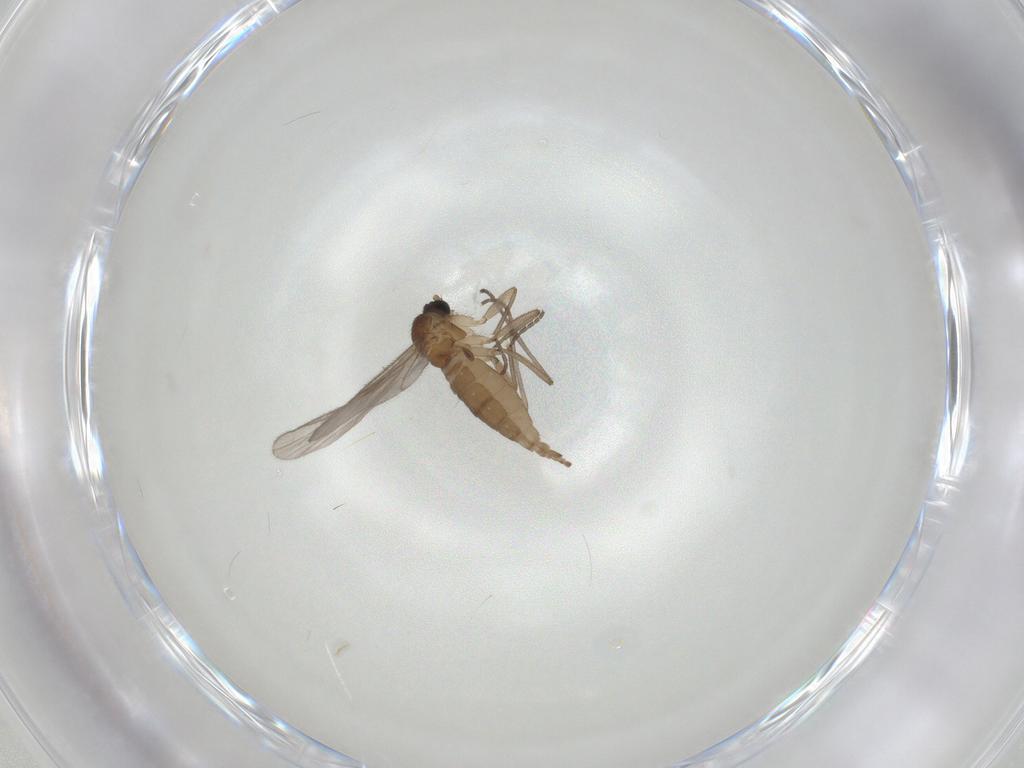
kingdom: Animalia
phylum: Arthropoda
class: Insecta
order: Diptera
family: Sciaridae
